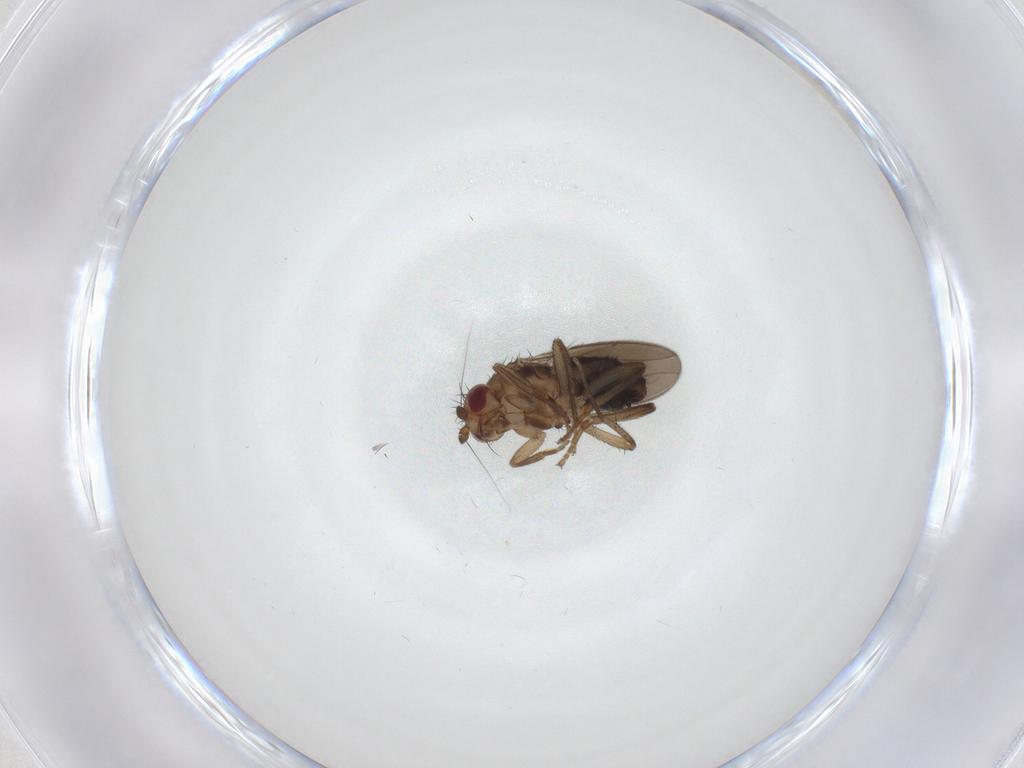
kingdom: Animalia
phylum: Arthropoda
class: Insecta
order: Diptera
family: Sphaeroceridae
